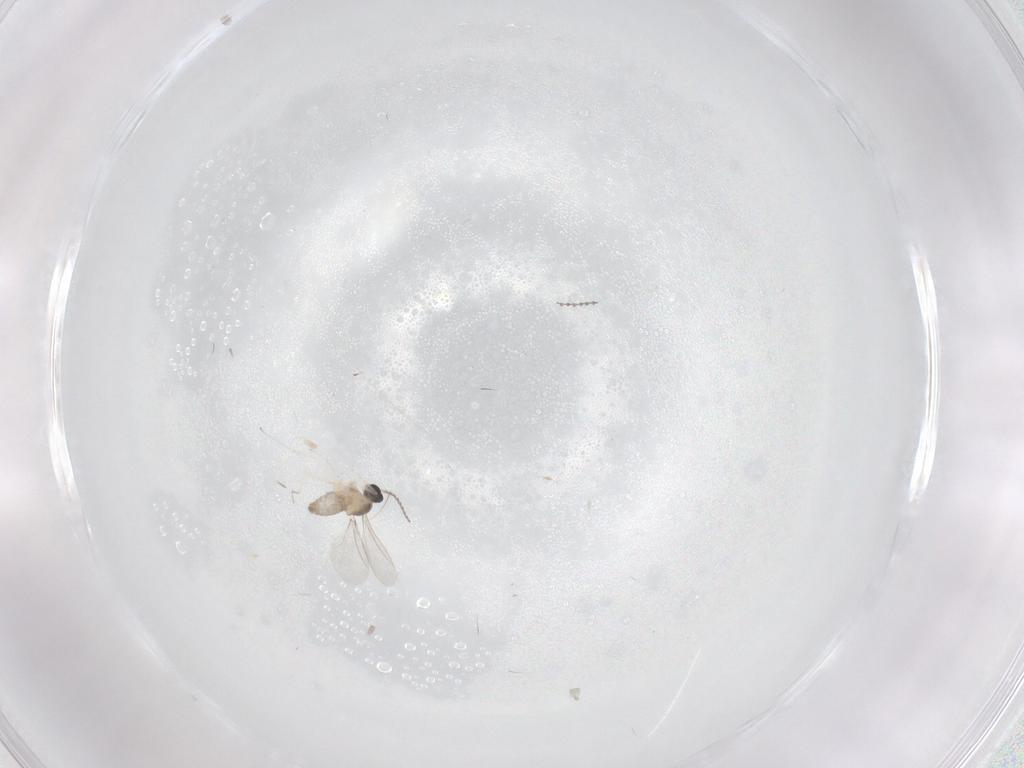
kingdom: Animalia
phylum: Arthropoda
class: Insecta
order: Diptera
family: Cecidomyiidae
